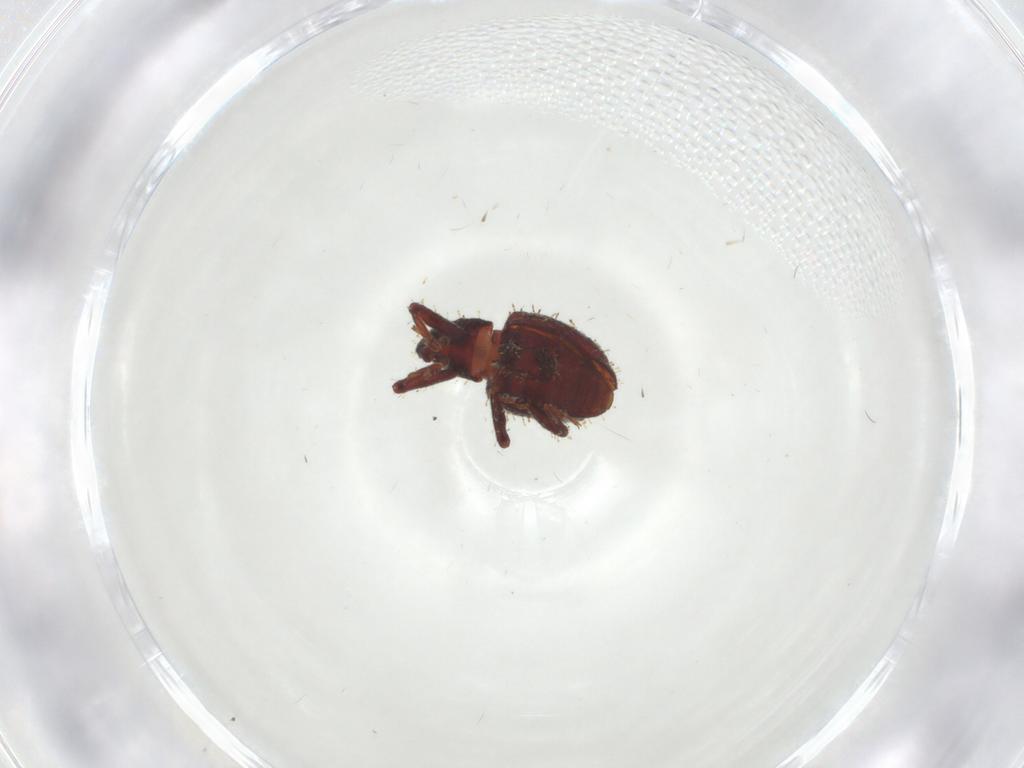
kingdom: Animalia
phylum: Arthropoda
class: Insecta
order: Coleoptera
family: Curculionidae
